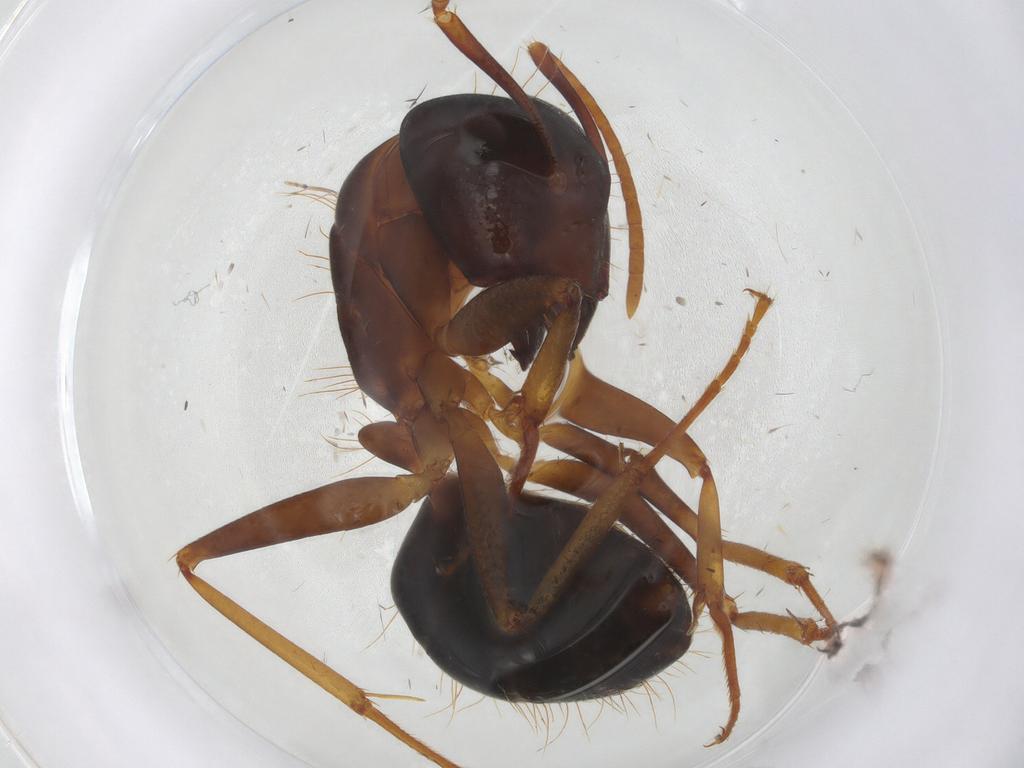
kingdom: Animalia
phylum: Arthropoda
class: Insecta
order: Hymenoptera
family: Formicidae
